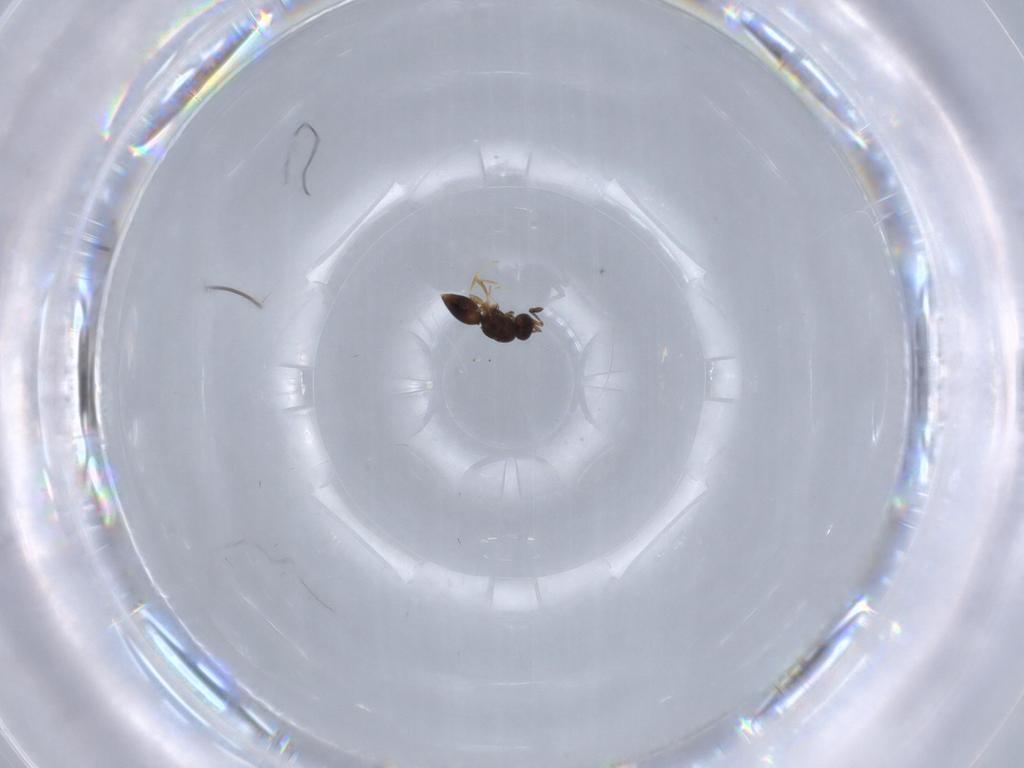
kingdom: Animalia
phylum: Arthropoda
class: Insecta
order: Hymenoptera
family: Ceraphronidae
